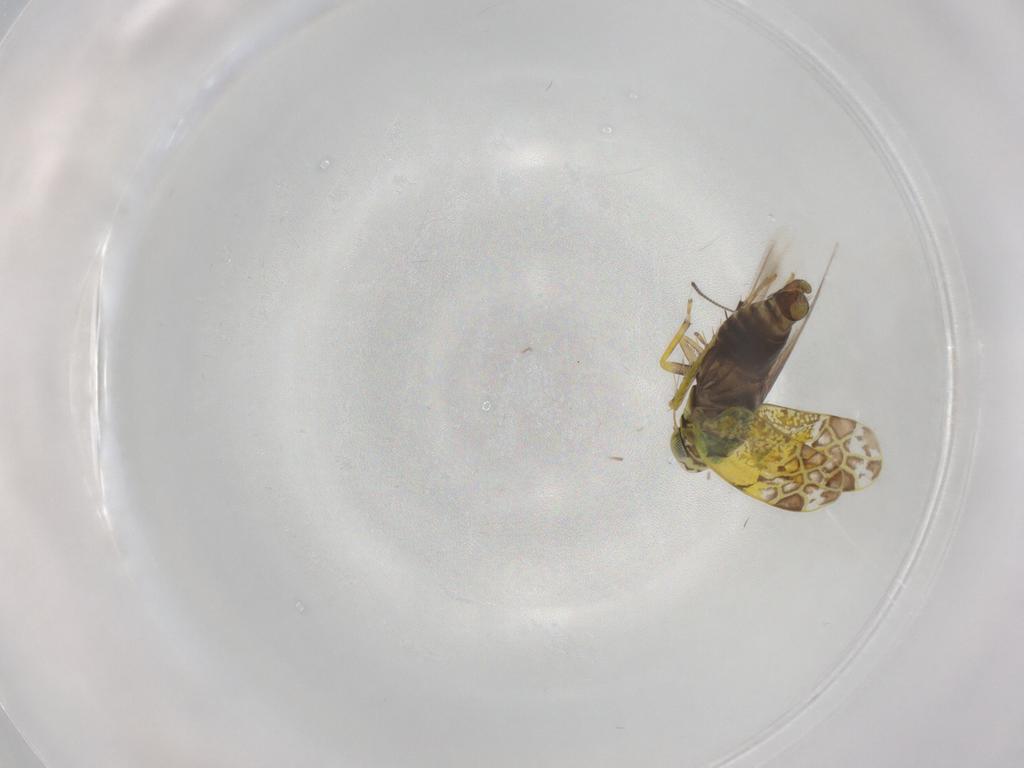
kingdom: Animalia
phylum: Arthropoda
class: Insecta
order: Hemiptera
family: Cicadellidae
